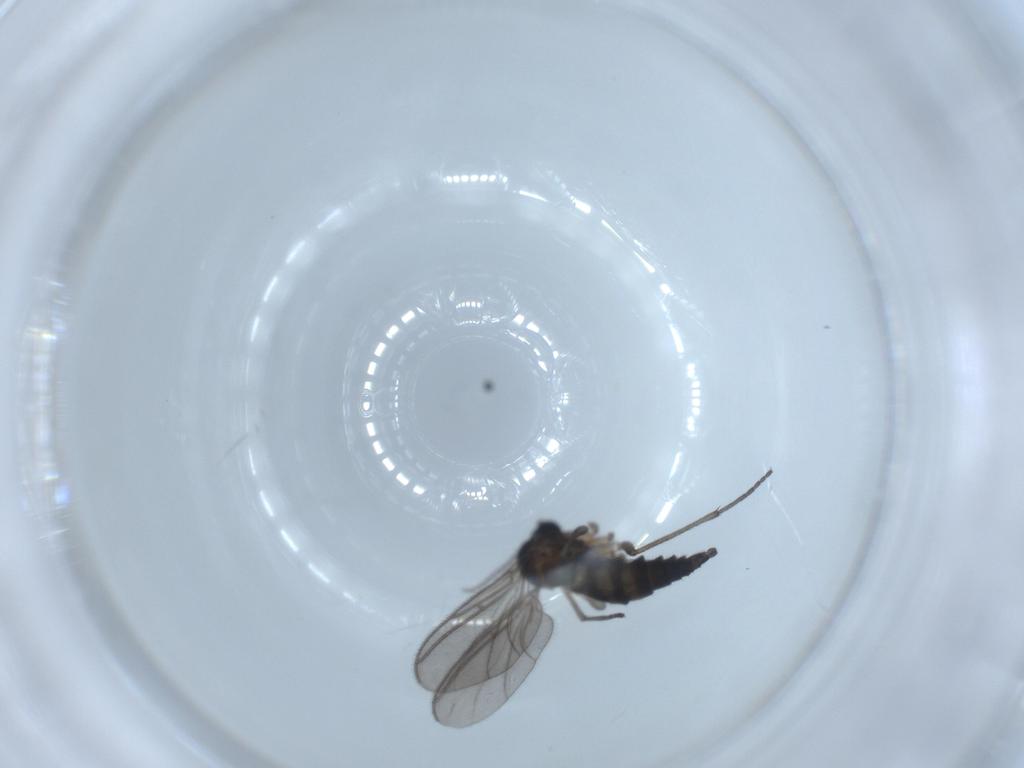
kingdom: Animalia
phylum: Arthropoda
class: Insecta
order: Diptera
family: Sciaridae
